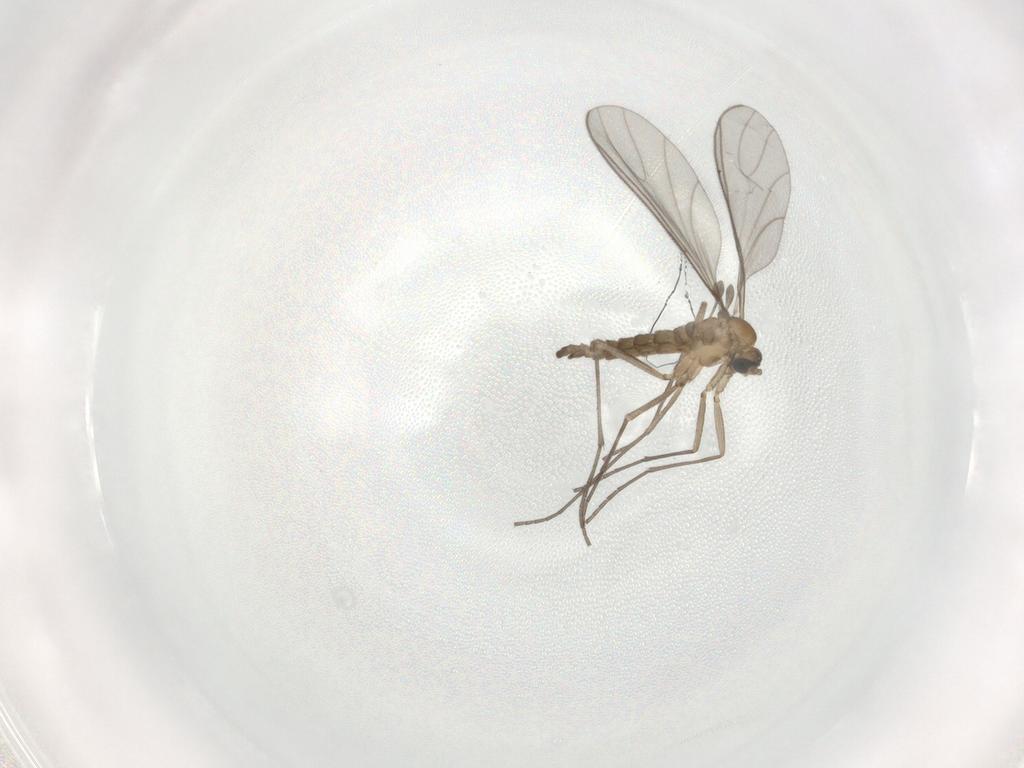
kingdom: Animalia
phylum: Arthropoda
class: Insecta
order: Diptera
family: Sciaridae
